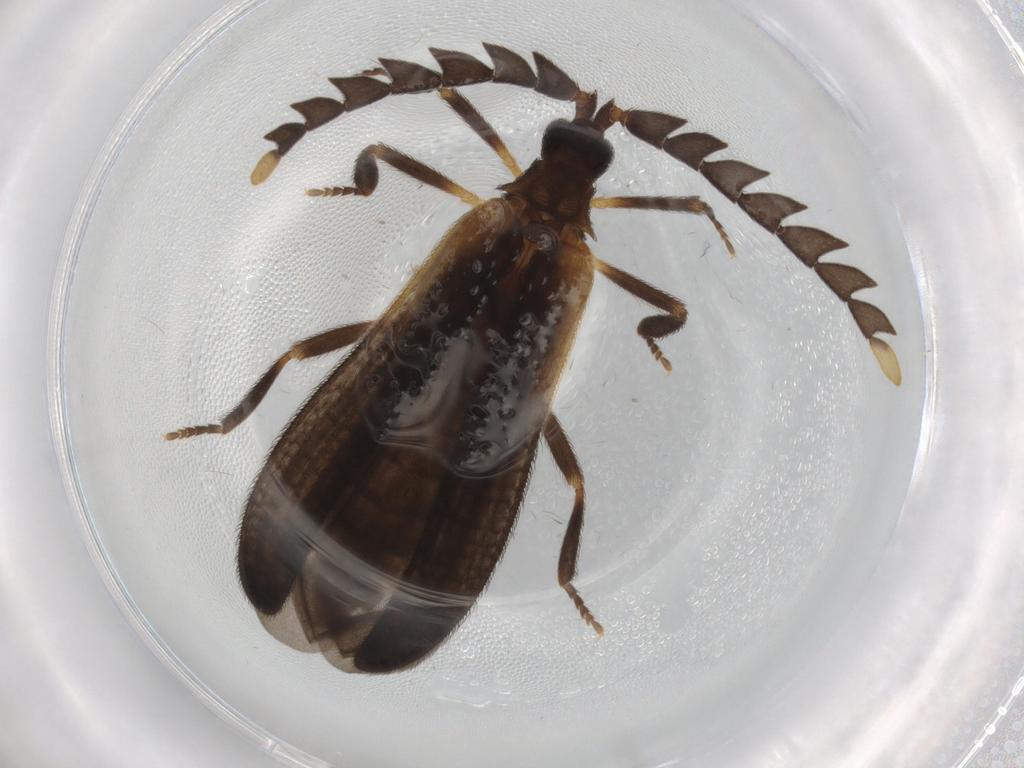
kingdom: Animalia
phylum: Arthropoda
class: Insecta
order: Coleoptera
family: Lycidae
